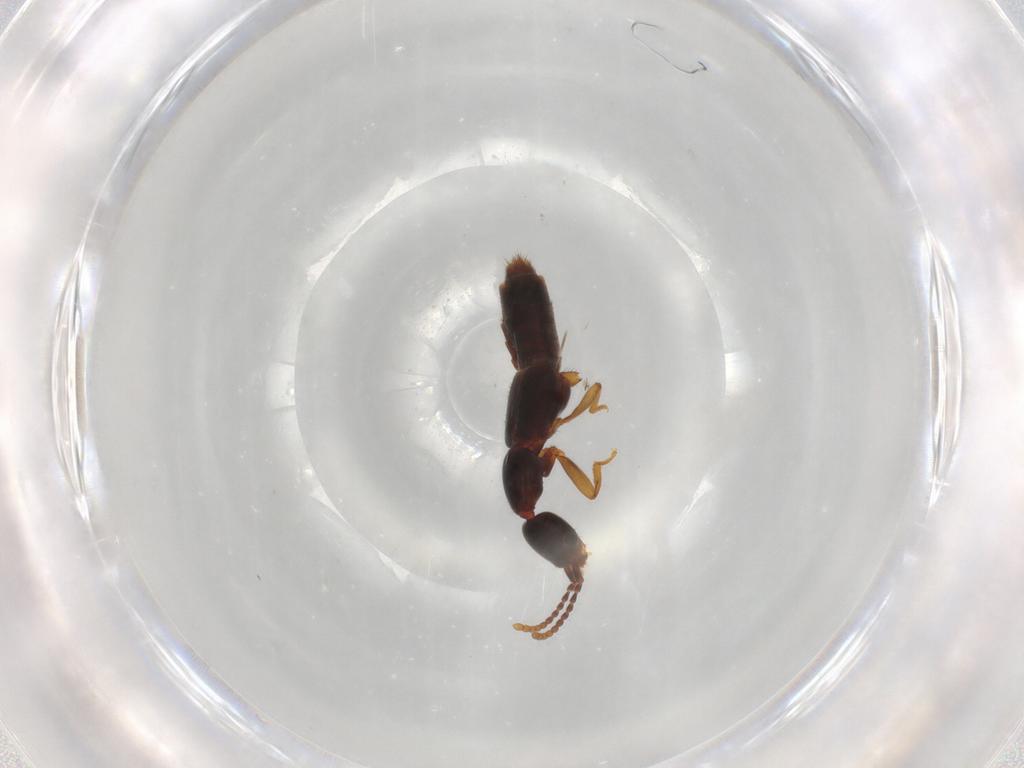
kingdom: Animalia
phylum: Arthropoda
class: Insecta
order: Coleoptera
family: Staphylinidae
